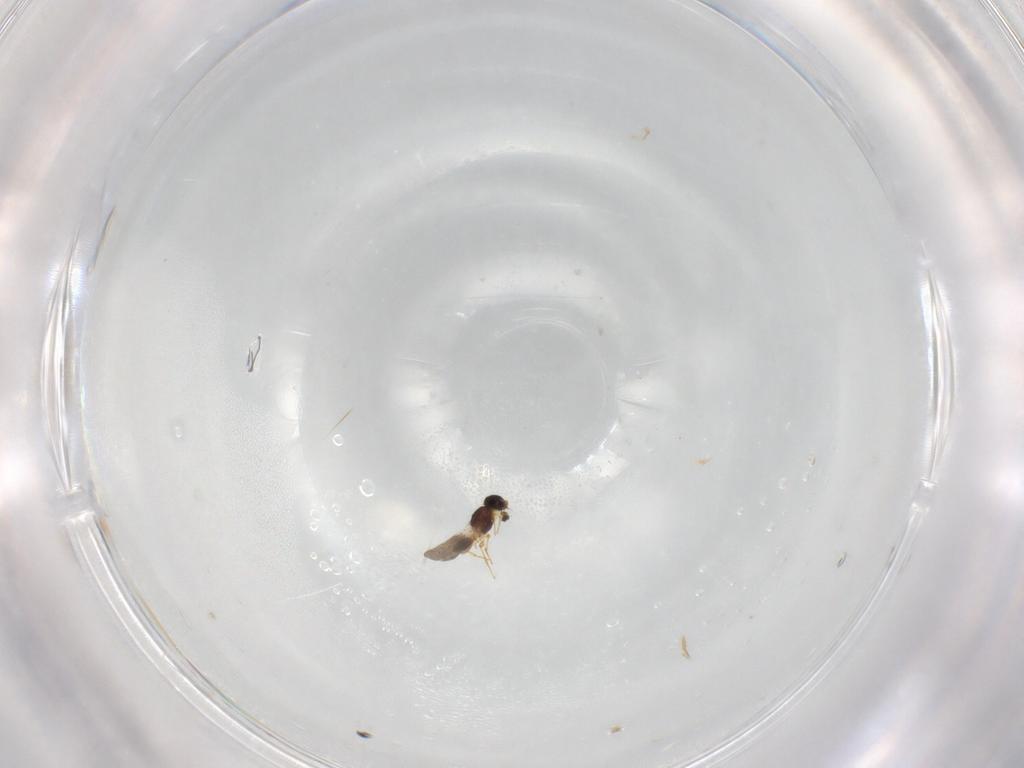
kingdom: Animalia
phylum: Arthropoda
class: Insecta
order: Hymenoptera
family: Platygastridae
